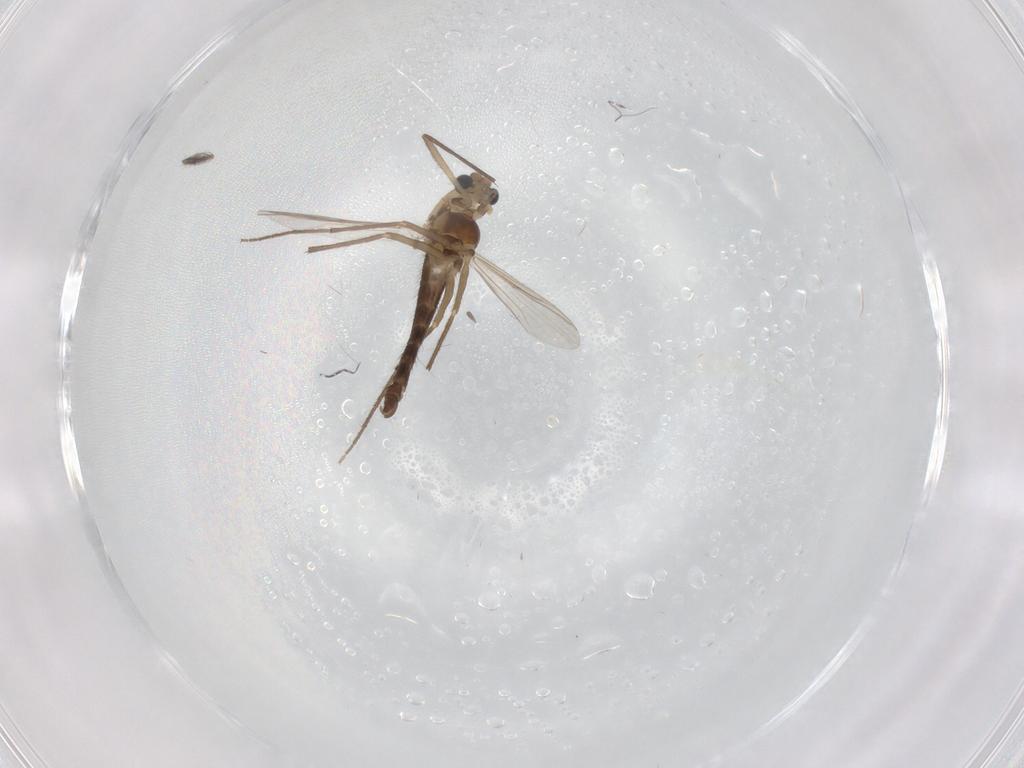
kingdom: Animalia
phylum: Arthropoda
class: Insecta
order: Diptera
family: Chironomidae
